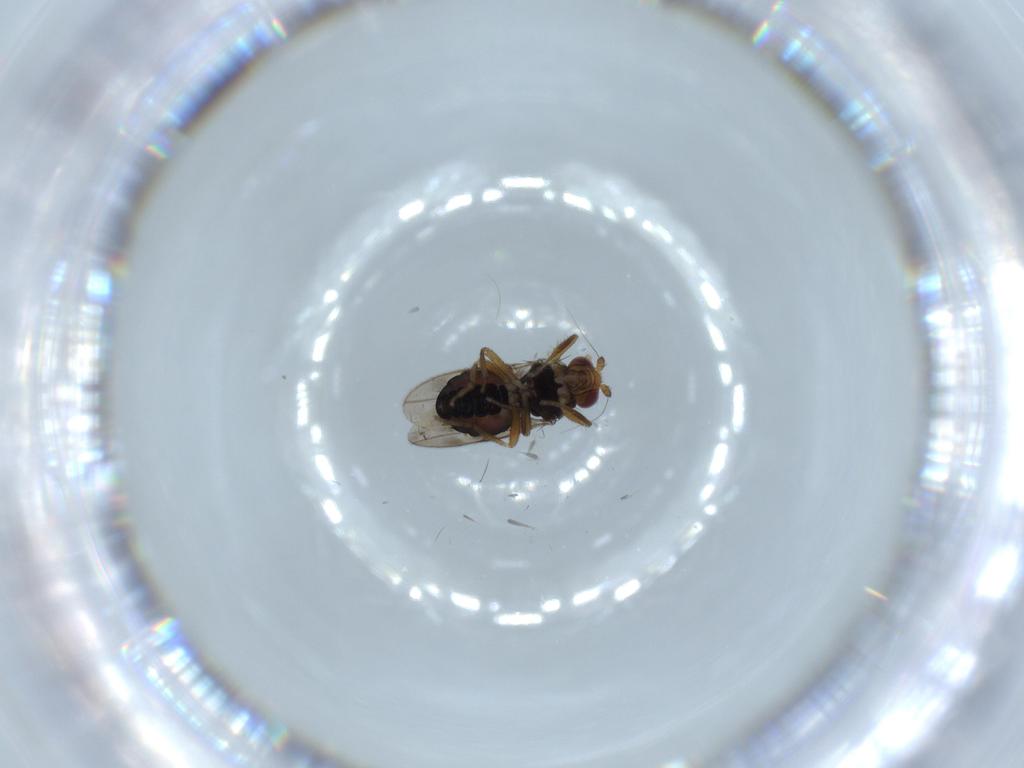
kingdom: Animalia
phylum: Arthropoda
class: Insecta
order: Diptera
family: Sphaeroceridae
